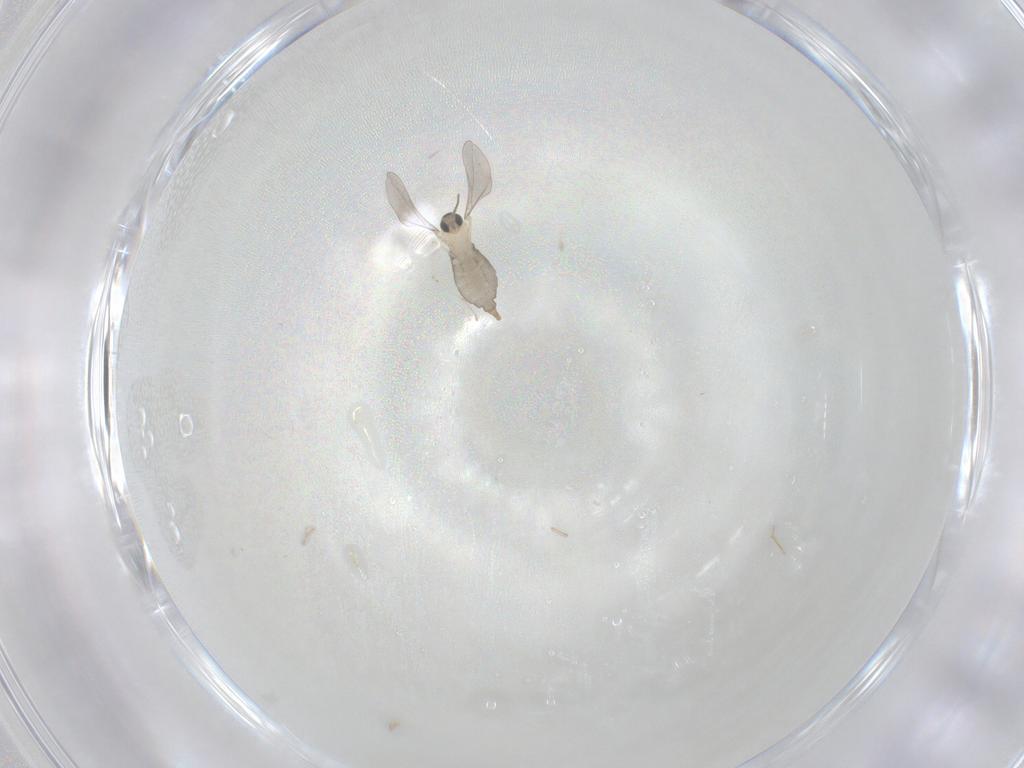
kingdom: Animalia
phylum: Arthropoda
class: Insecta
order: Diptera
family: Cecidomyiidae
